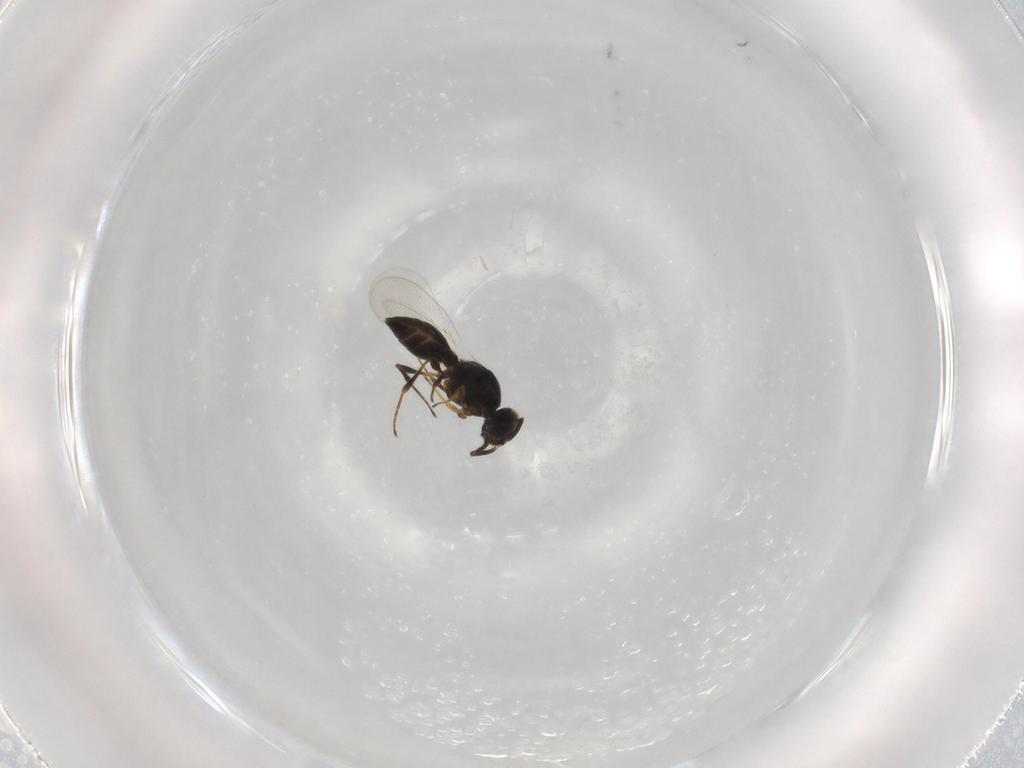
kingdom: Animalia
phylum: Arthropoda
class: Insecta
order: Hymenoptera
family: Platygastridae
